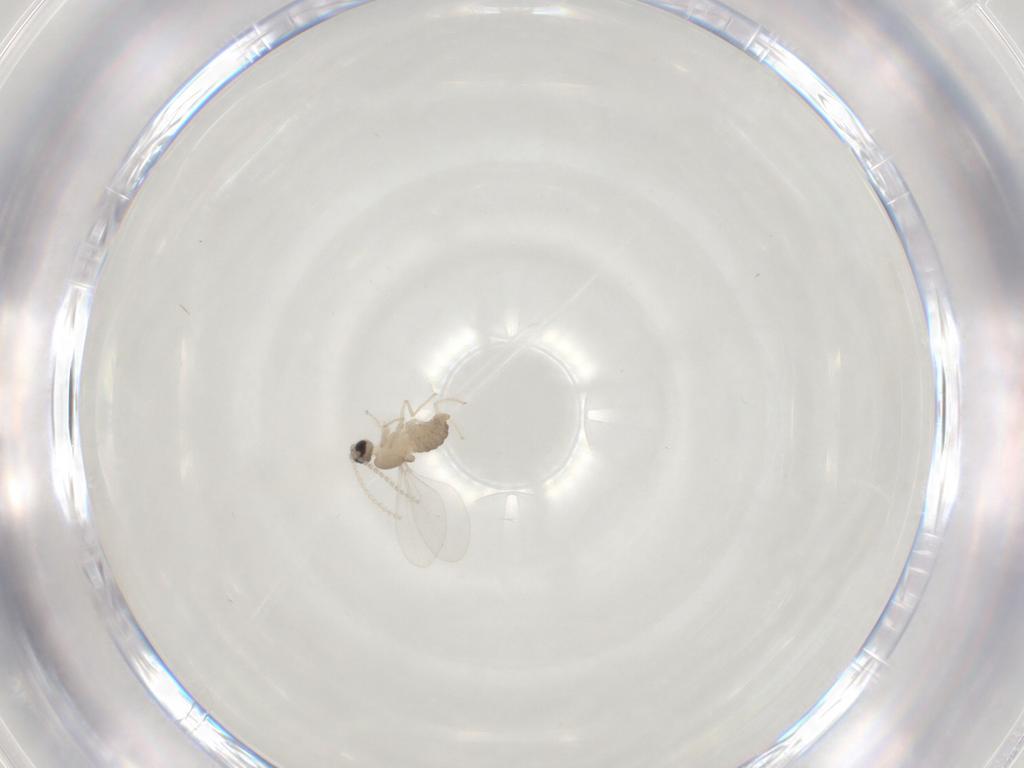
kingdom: Animalia
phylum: Arthropoda
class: Insecta
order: Diptera
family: Cecidomyiidae
